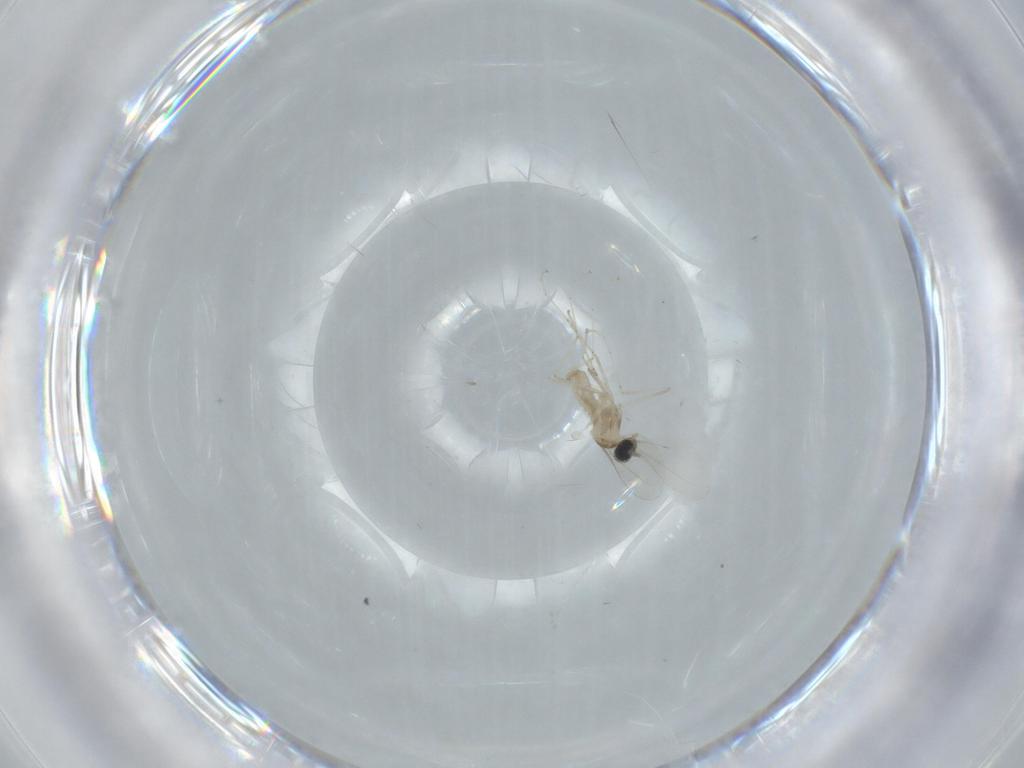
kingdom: Animalia
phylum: Arthropoda
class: Insecta
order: Diptera
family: Cecidomyiidae
